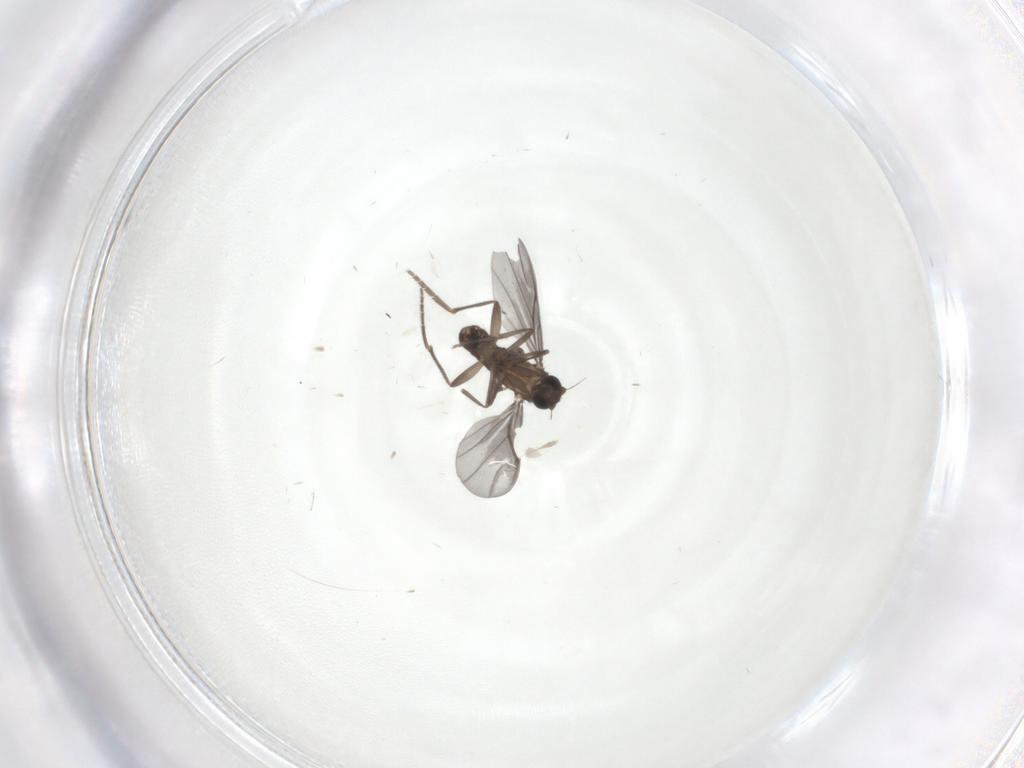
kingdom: Animalia
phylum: Arthropoda
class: Insecta
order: Diptera
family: Phoridae
